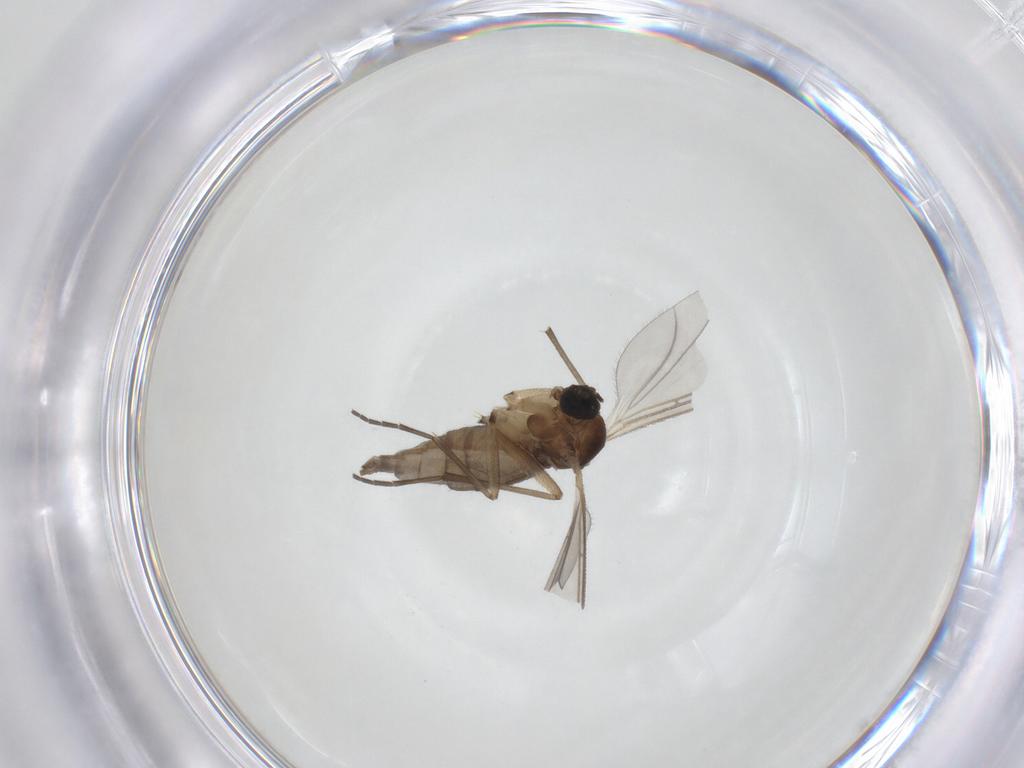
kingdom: Animalia
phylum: Arthropoda
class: Insecta
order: Diptera
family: Sciaridae
